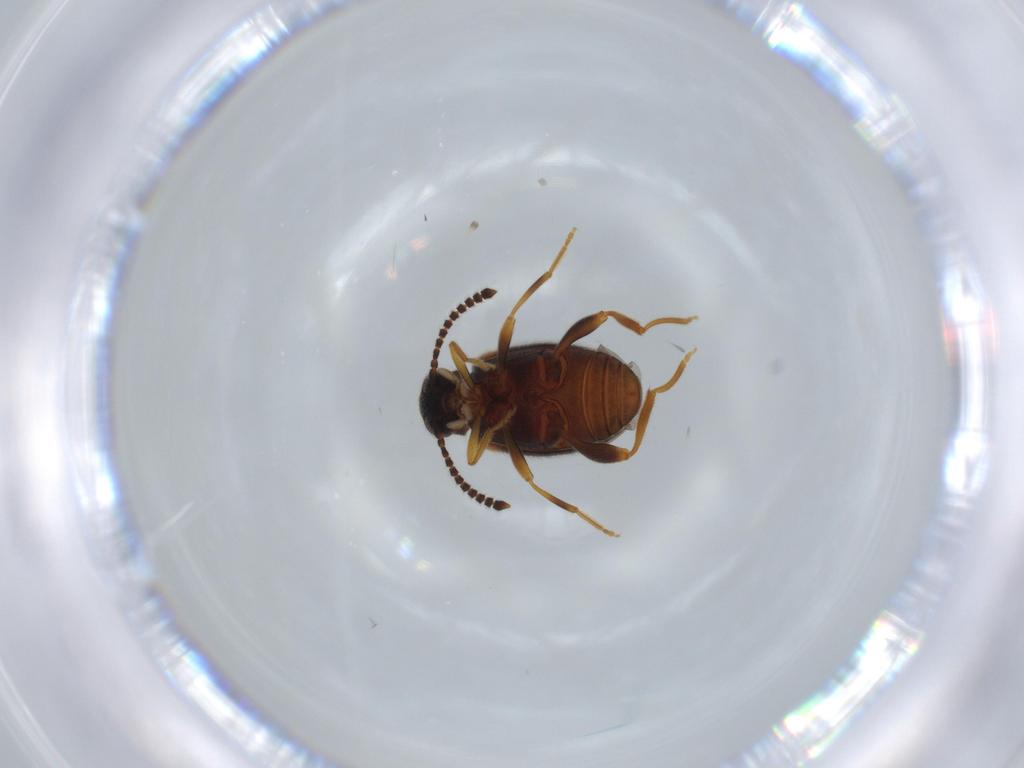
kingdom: Animalia
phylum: Arthropoda
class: Insecta
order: Coleoptera
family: Aderidae
